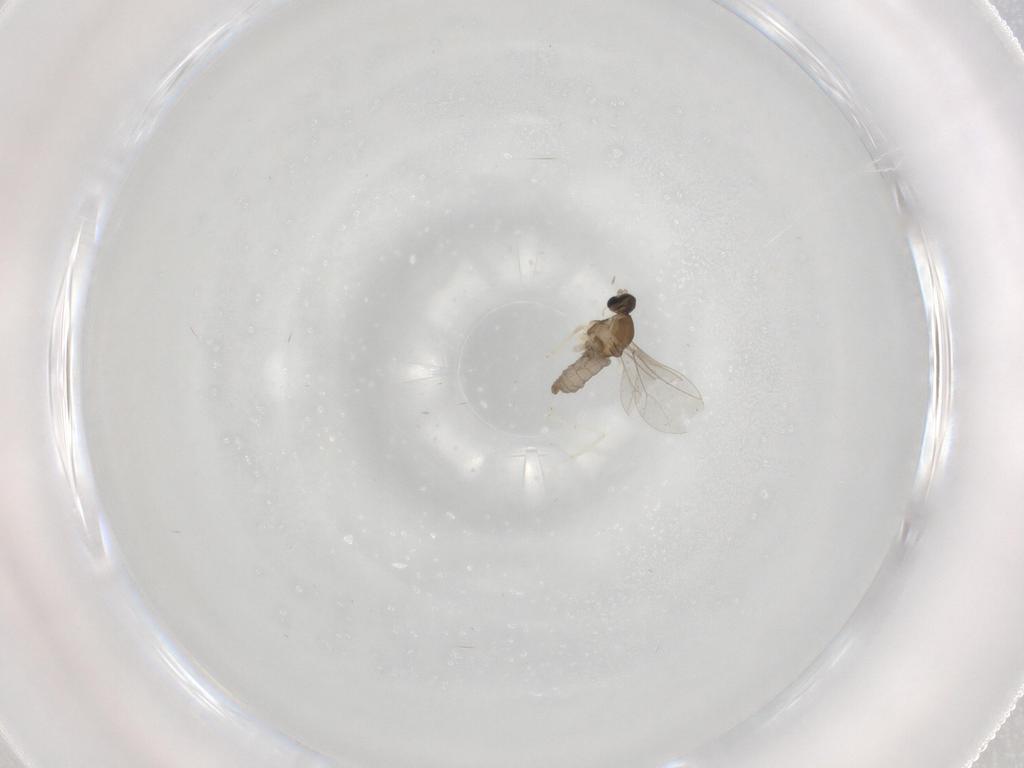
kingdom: Animalia
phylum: Arthropoda
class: Insecta
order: Diptera
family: Cecidomyiidae
